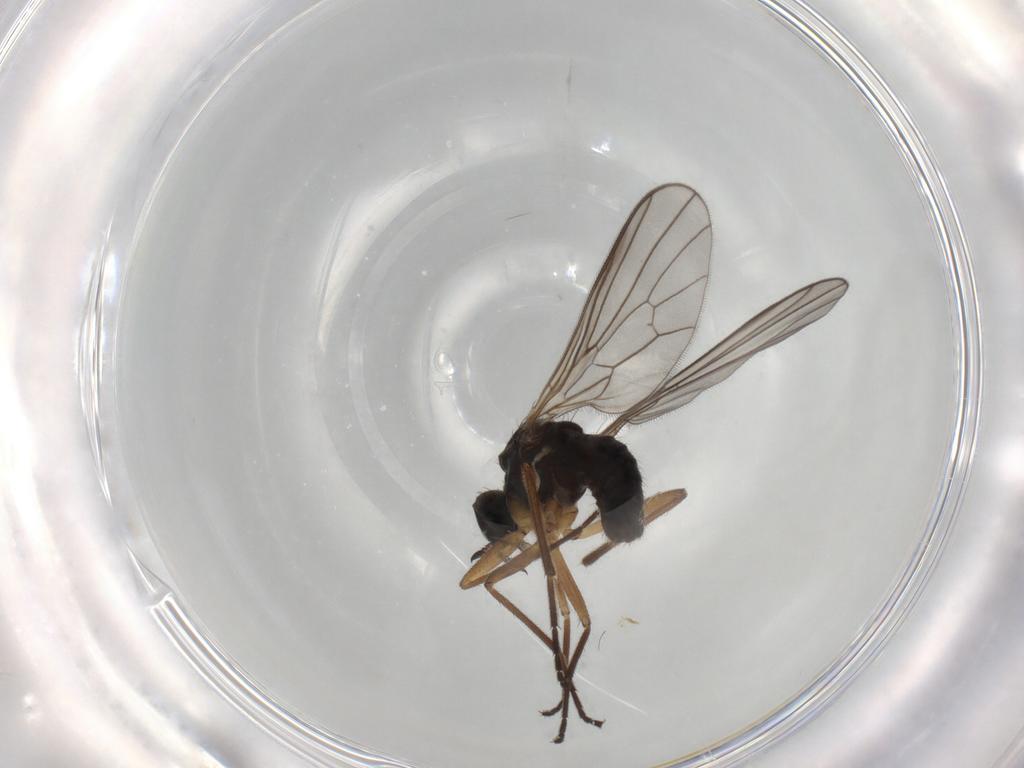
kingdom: Animalia
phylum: Arthropoda
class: Insecta
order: Diptera
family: Empididae
